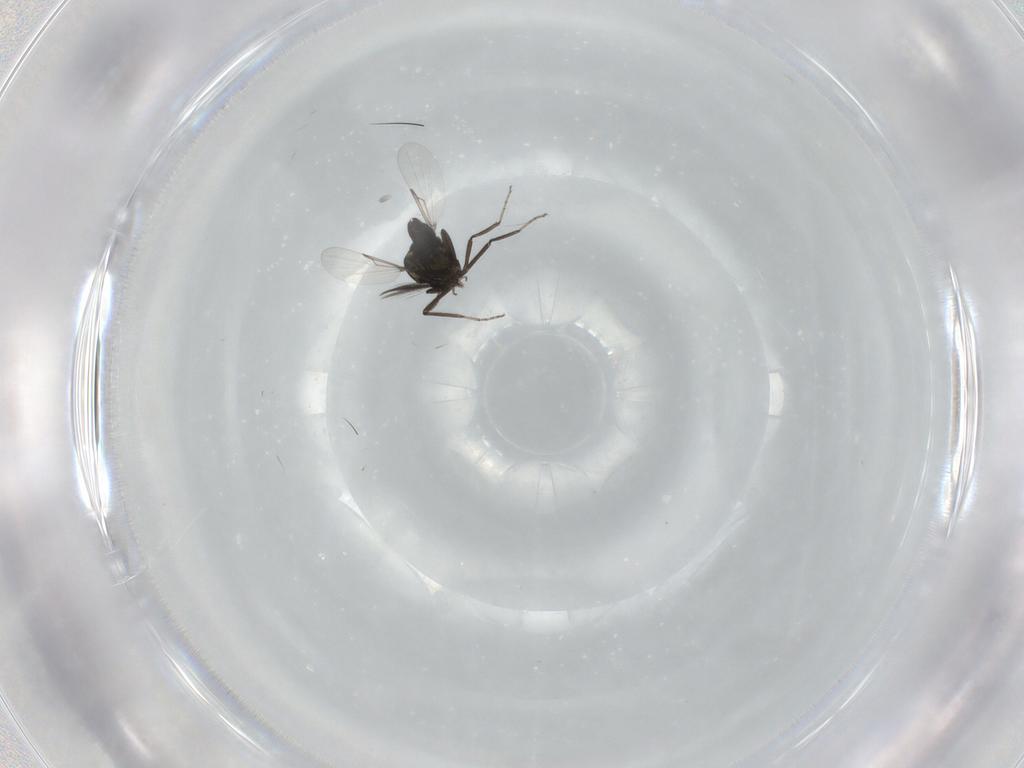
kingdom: Animalia
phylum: Arthropoda
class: Insecta
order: Diptera
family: Ceratopogonidae
